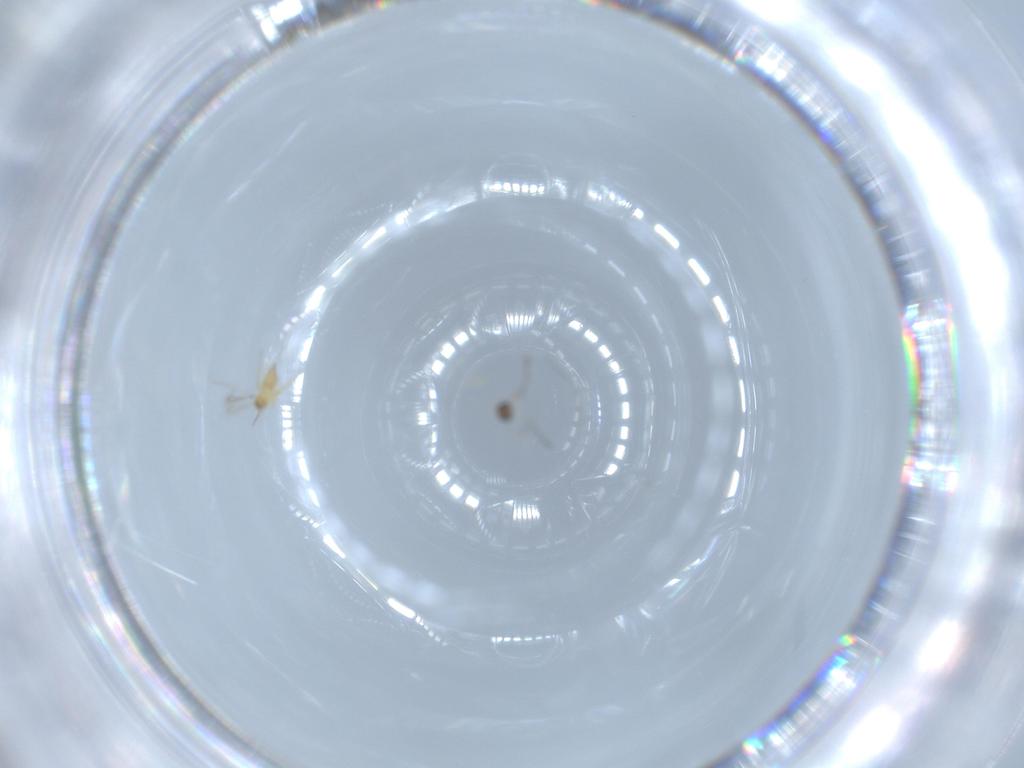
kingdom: Animalia
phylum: Arthropoda
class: Insecta
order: Hymenoptera
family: Mymaridae
